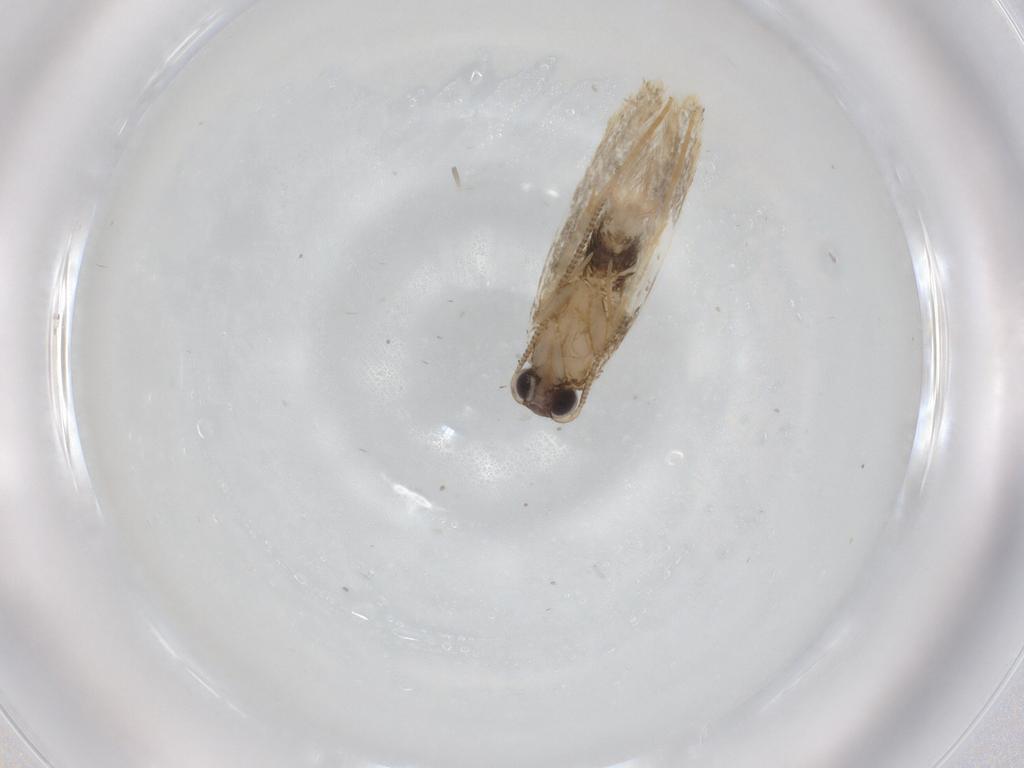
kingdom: Animalia
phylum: Arthropoda
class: Insecta
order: Lepidoptera
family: Tineidae
